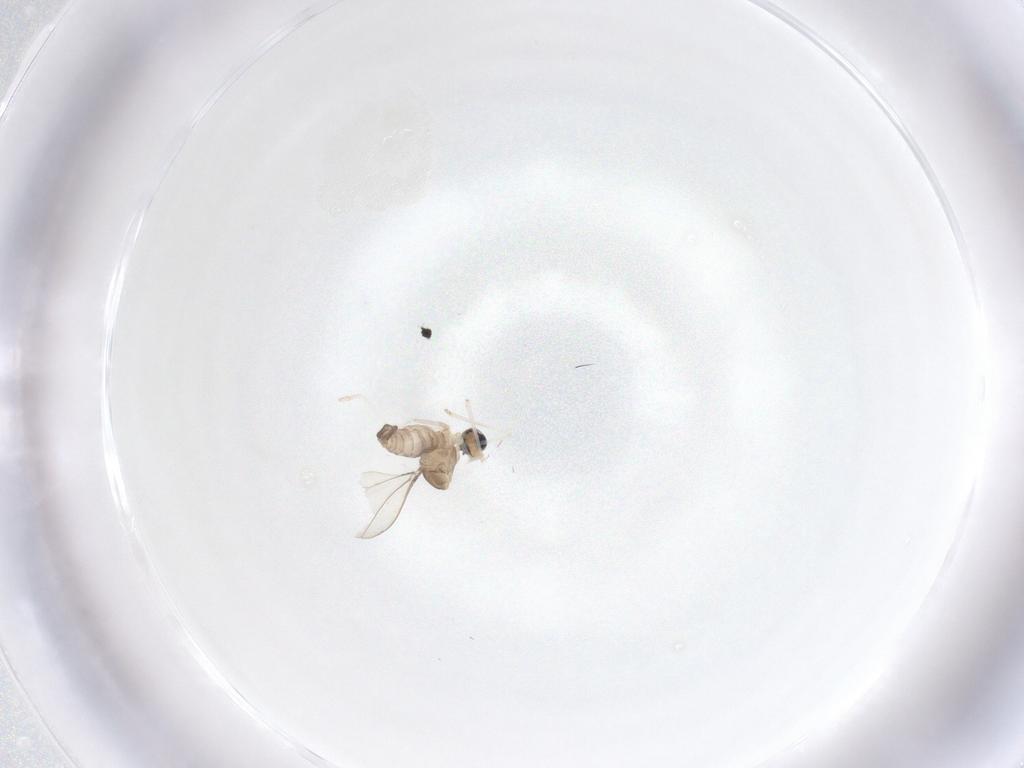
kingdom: Animalia
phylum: Arthropoda
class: Insecta
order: Diptera
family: Cecidomyiidae
